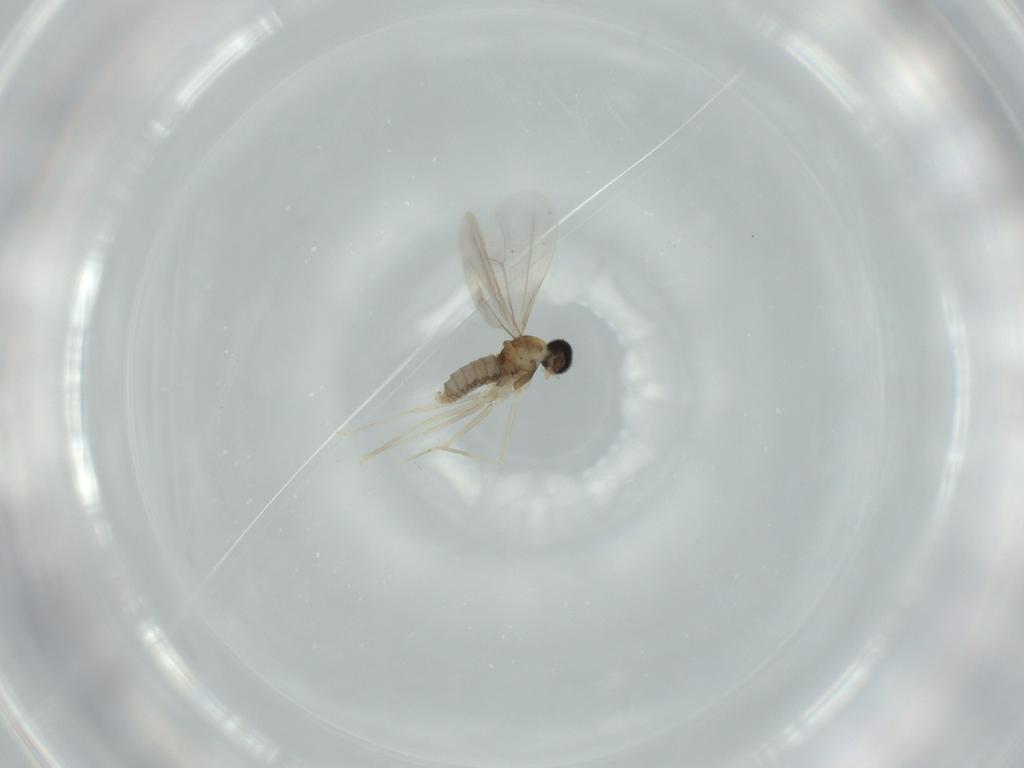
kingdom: Animalia
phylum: Arthropoda
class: Insecta
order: Diptera
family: Cecidomyiidae
